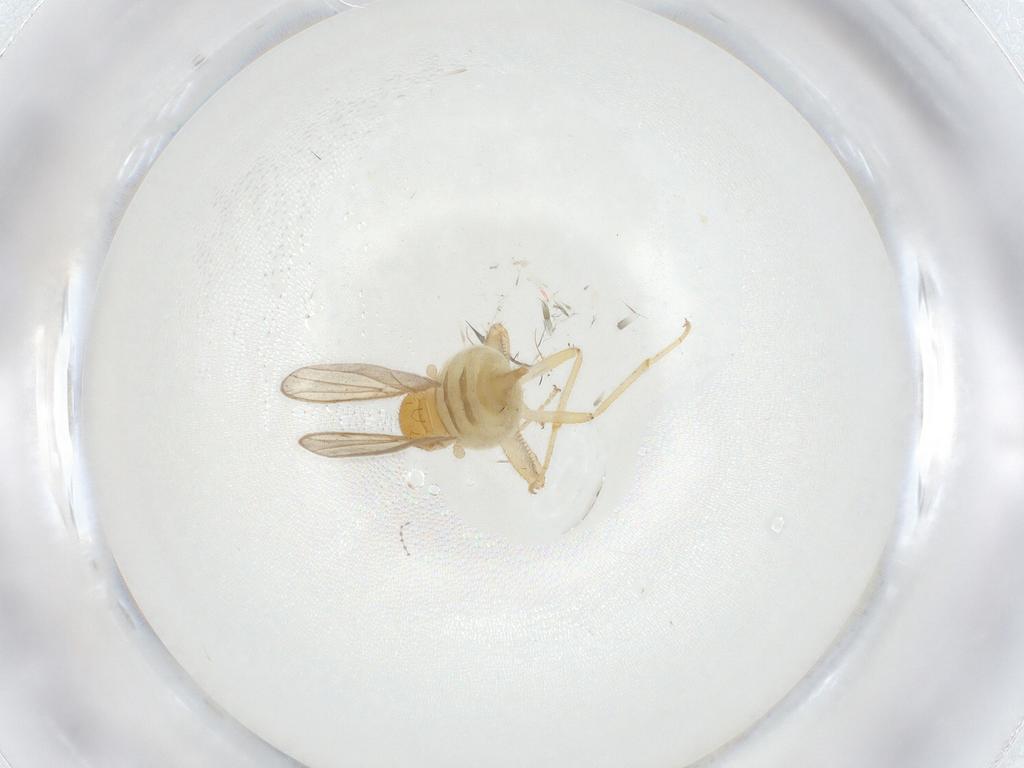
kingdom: Animalia
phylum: Arthropoda
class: Insecta
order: Diptera
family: Cecidomyiidae
